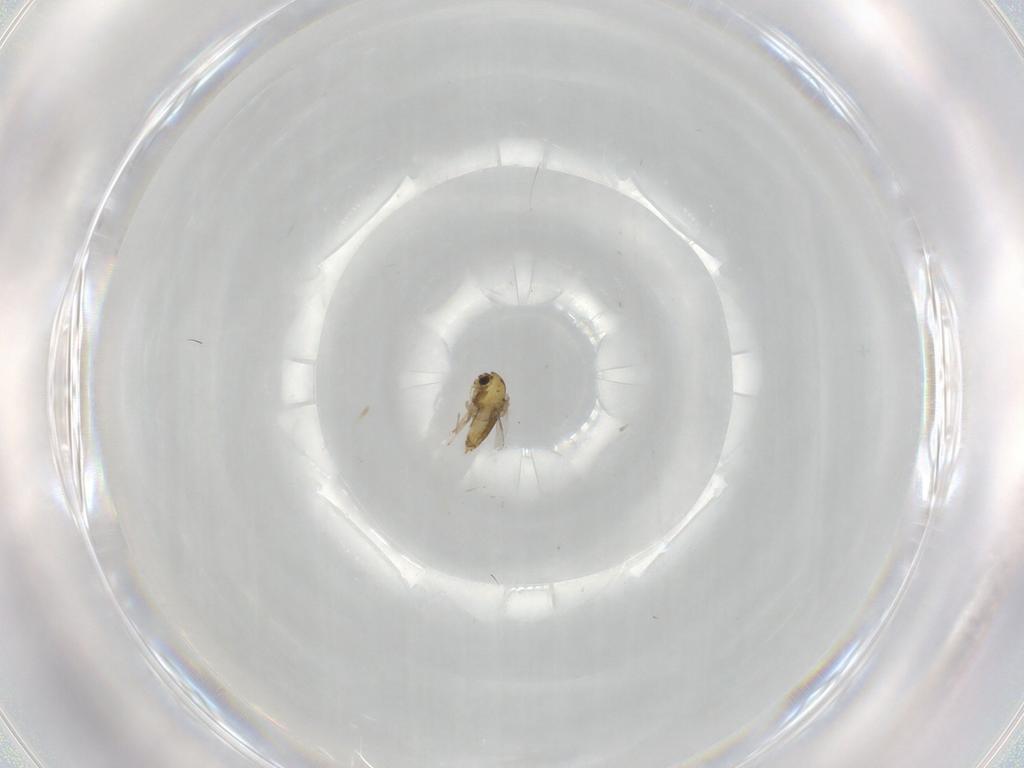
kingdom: Animalia
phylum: Arthropoda
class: Insecta
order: Diptera
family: Chironomidae
